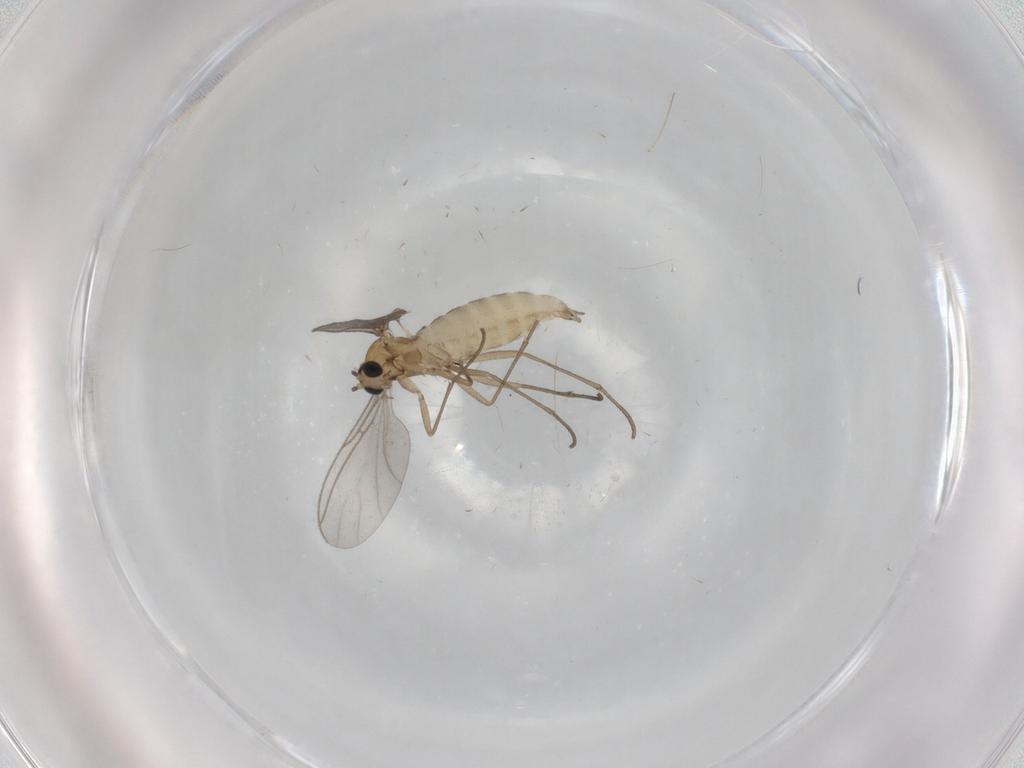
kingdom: Animalia
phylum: Arthropoda
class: Insecta
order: Diptera
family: Sciaridae
